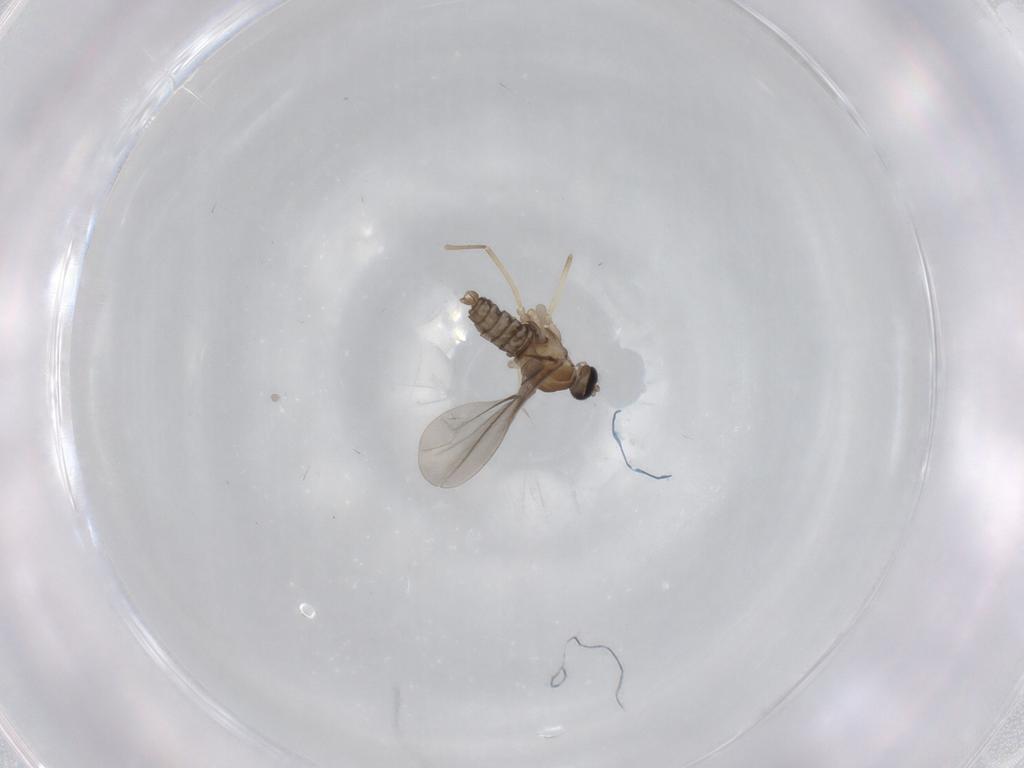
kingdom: Animalia
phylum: Arthropoda
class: Insecta
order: Diptera
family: Cecidomyiidae
